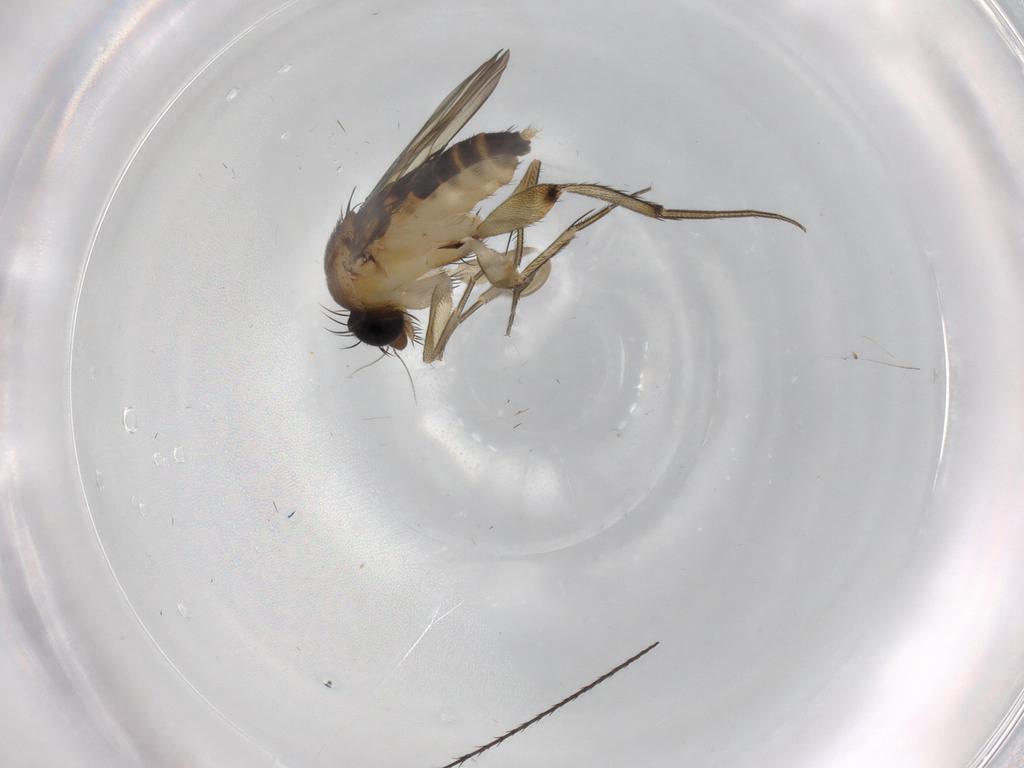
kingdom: Animalia
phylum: Arthropoda
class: Insecta
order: Diptera
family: Phoridae
